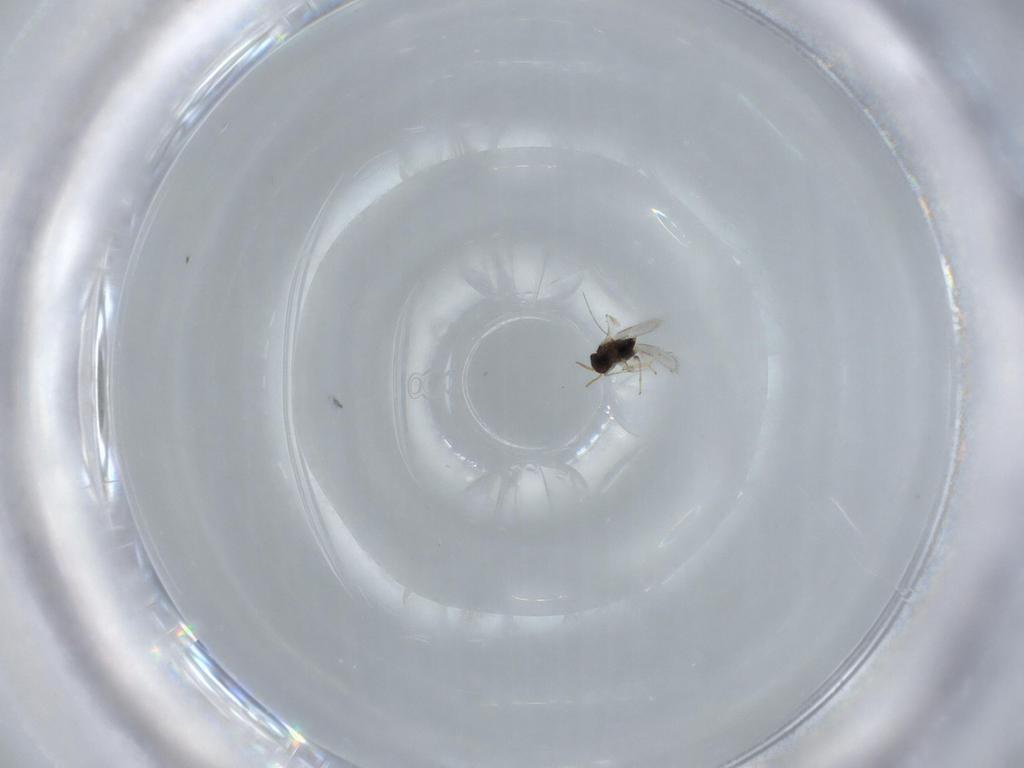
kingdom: Animalia
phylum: Arthropoda
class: Insecta
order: Hymenoptera
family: Aphelinidae
